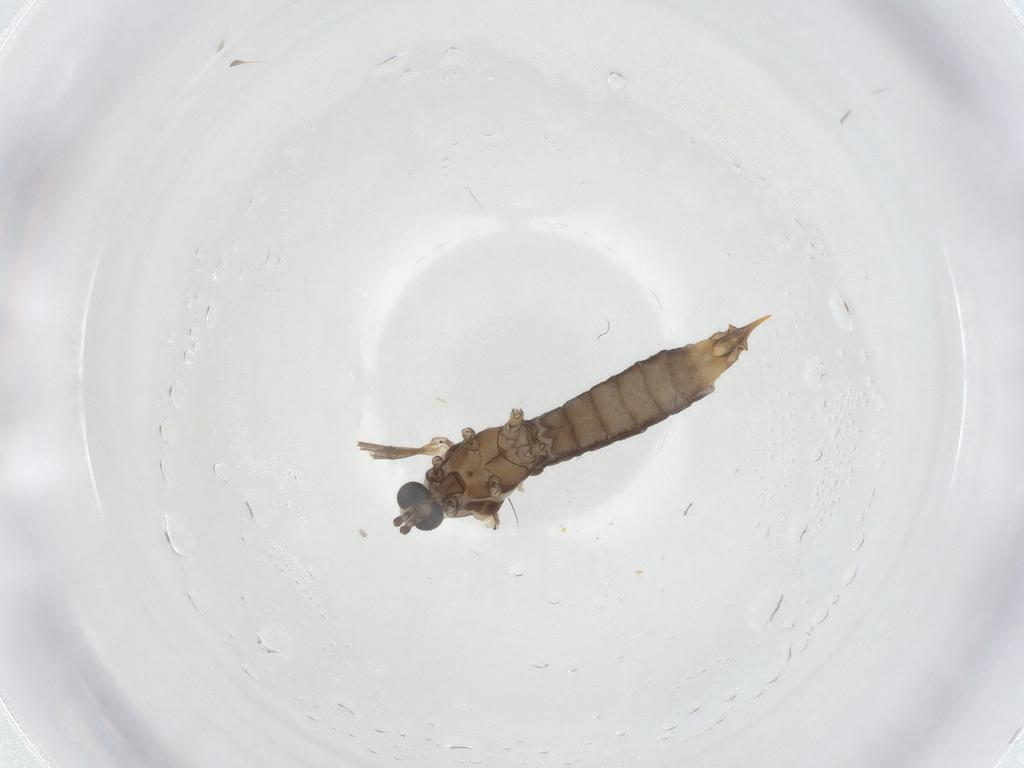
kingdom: Animalia
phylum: Arthropoda
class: Insecta
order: Diptera
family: Limoniidae
